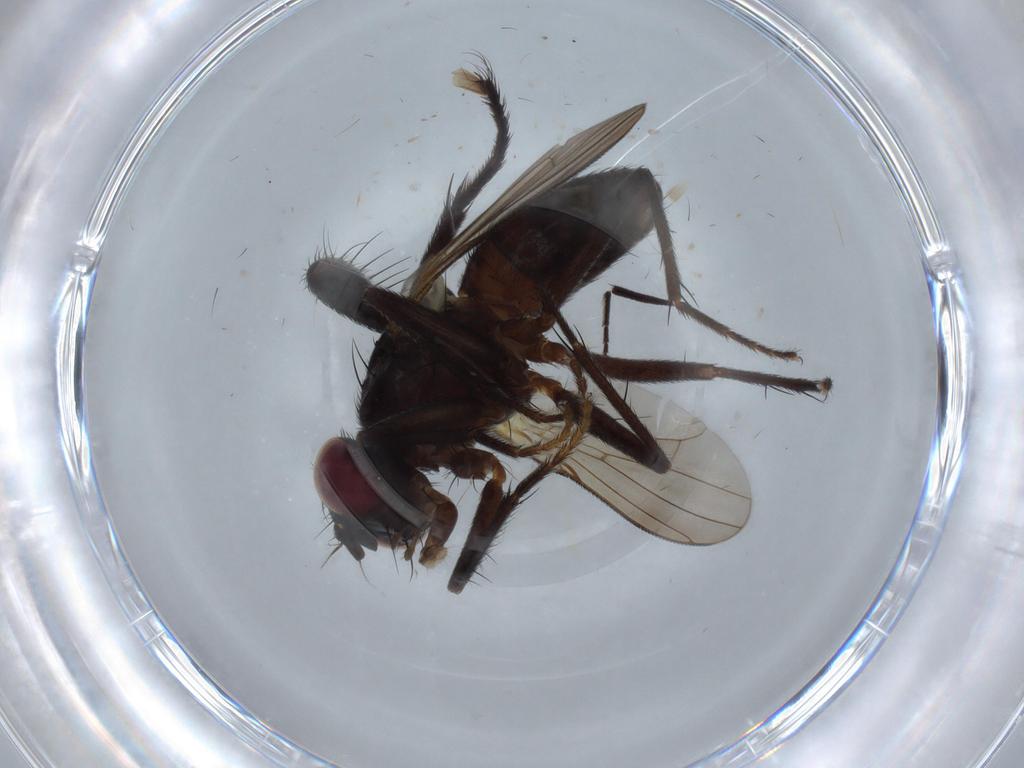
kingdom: Animalia
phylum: Arthropoda
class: Insecta
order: Diptera
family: Muscidae
